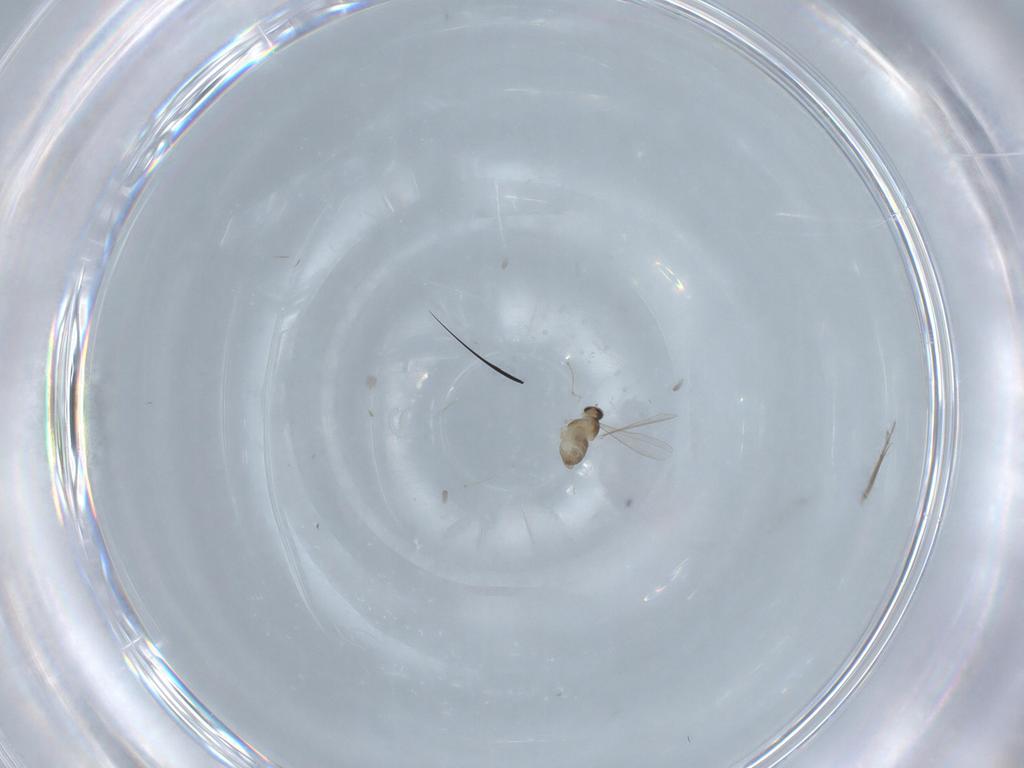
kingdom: Animalia
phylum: Arthropoda
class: Insecta
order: Diptera
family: Cecidomyiidae
